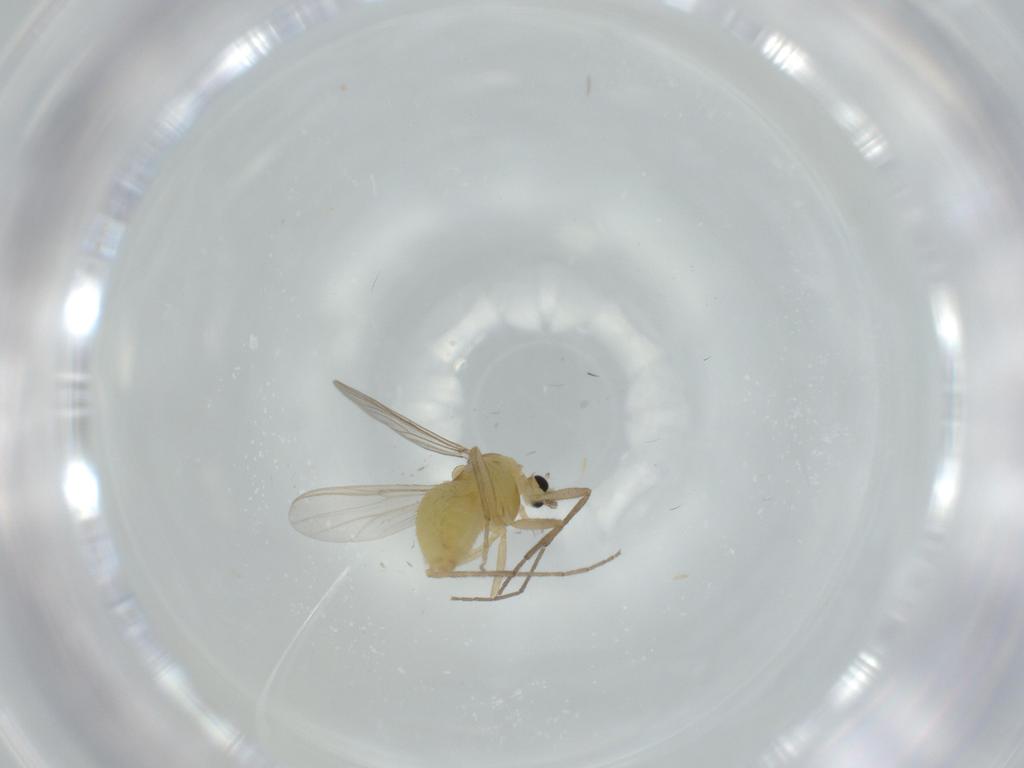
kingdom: Animalia
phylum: Arthropoda
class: Insecta
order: Diptera
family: Chironomidae
